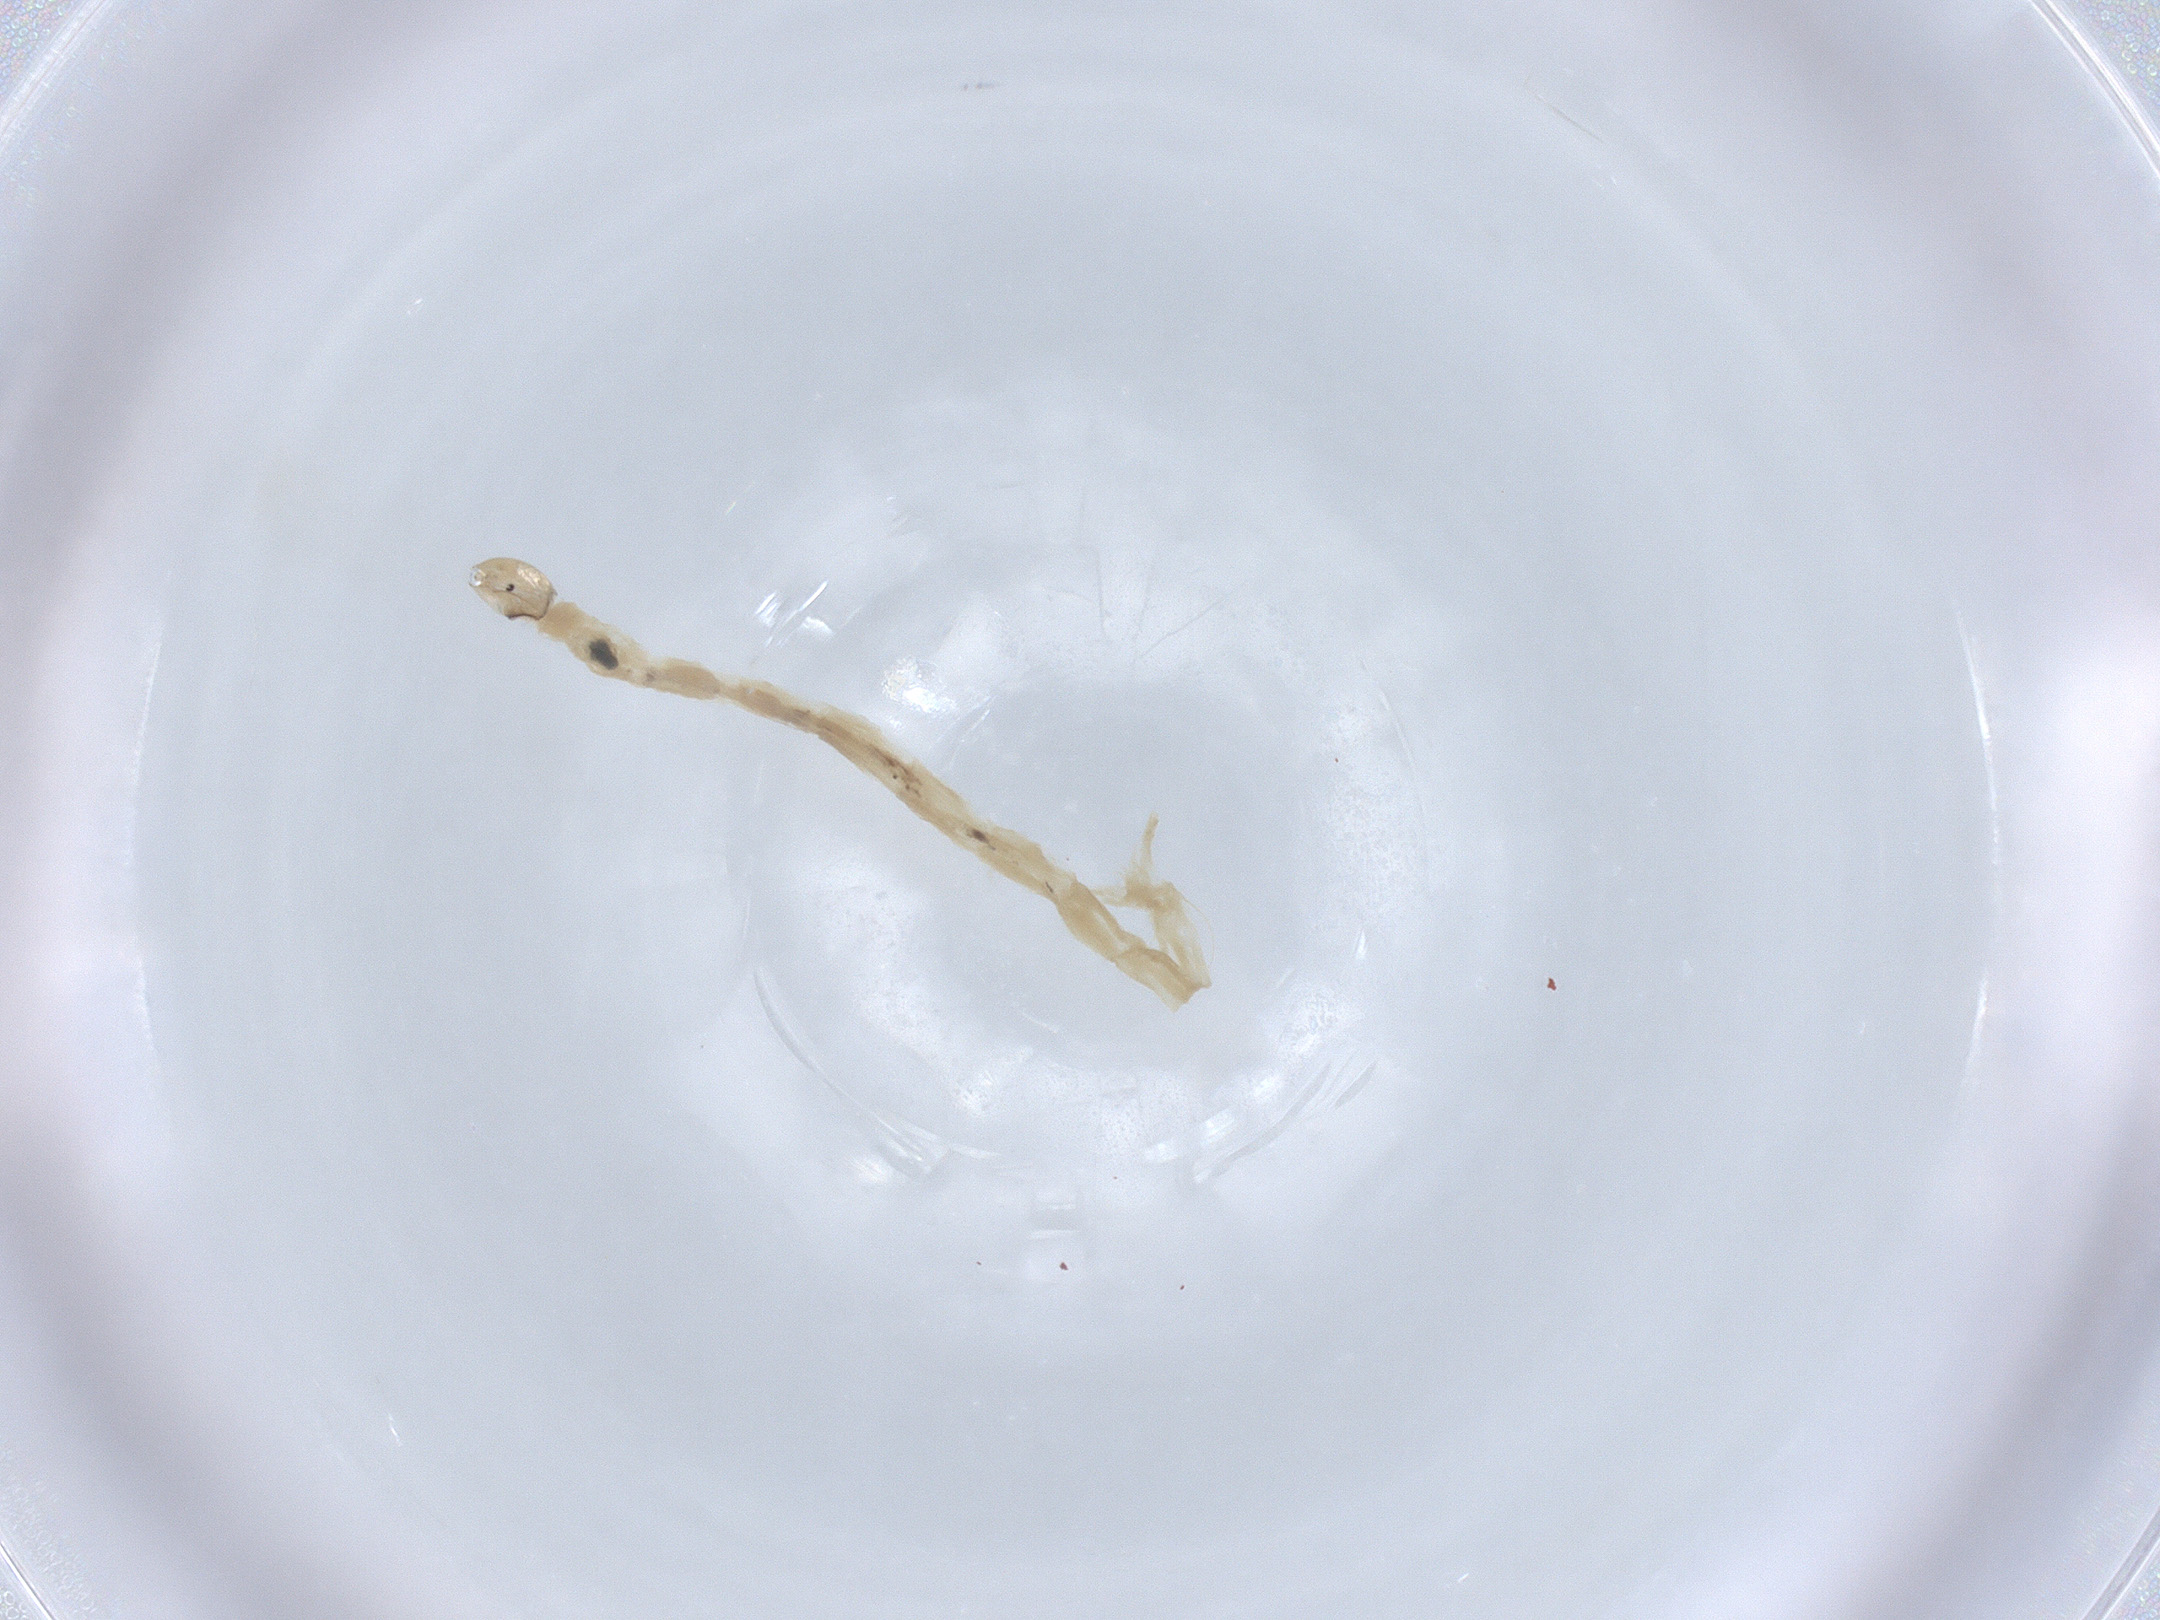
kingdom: Animalia
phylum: Arthropoda
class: Insecta
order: Diptera
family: Chironomidae
